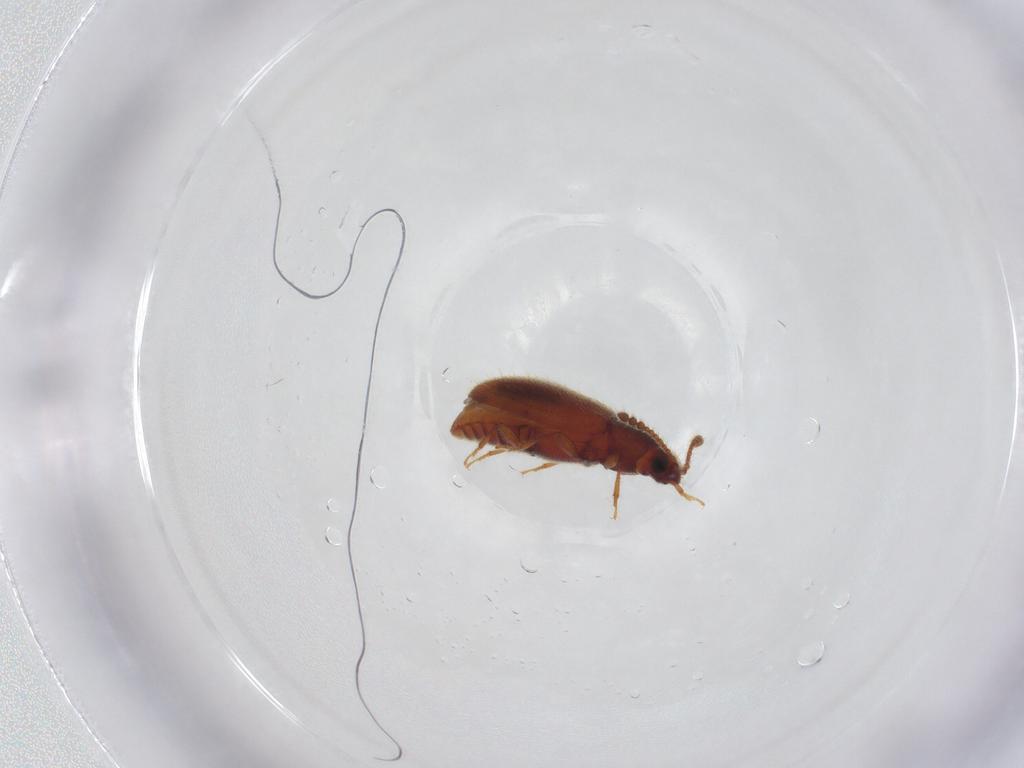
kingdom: Animalia
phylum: Arthropoda
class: Insecta
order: Coleoptera
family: Cryptophagidae
